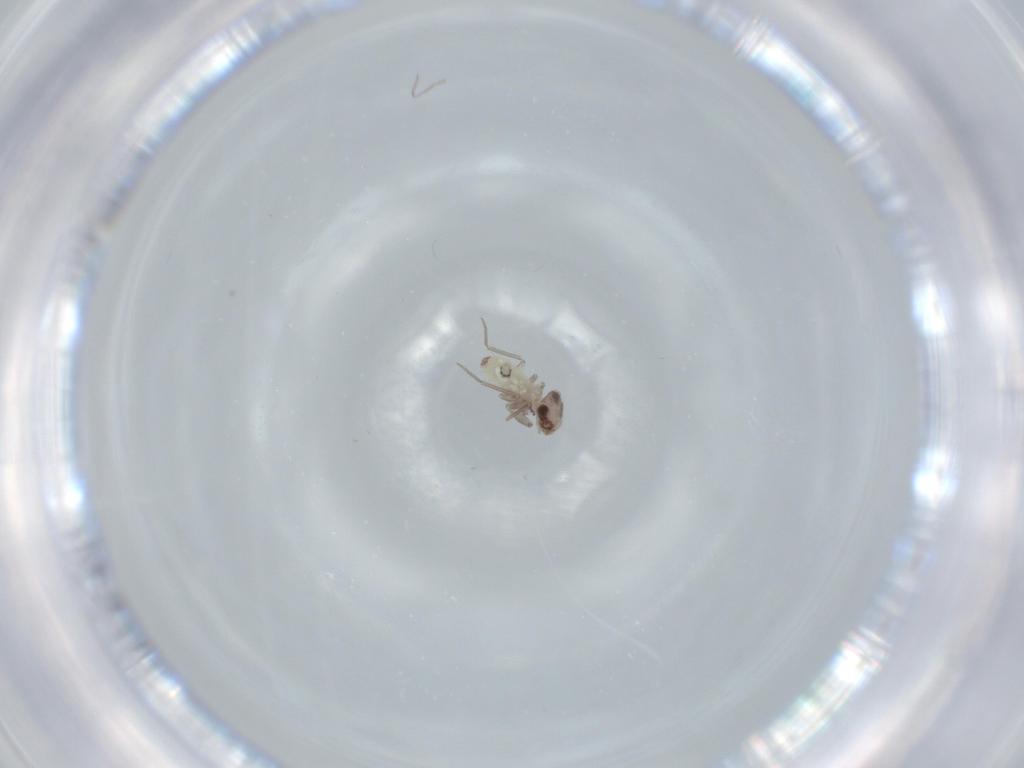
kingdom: Animalia
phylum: Arthropoda
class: Insecta
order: Psocodea
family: Lepidopsocidae
